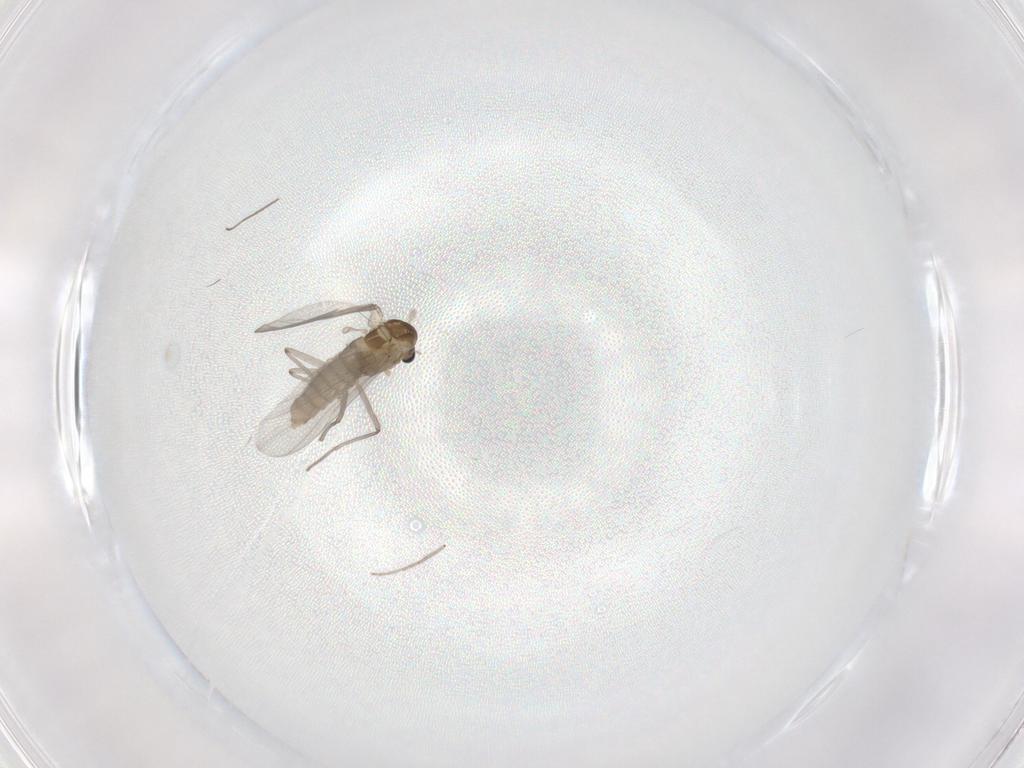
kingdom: Animalia
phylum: Arthropoda
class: Insecta
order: Diptera
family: Chironomidae
